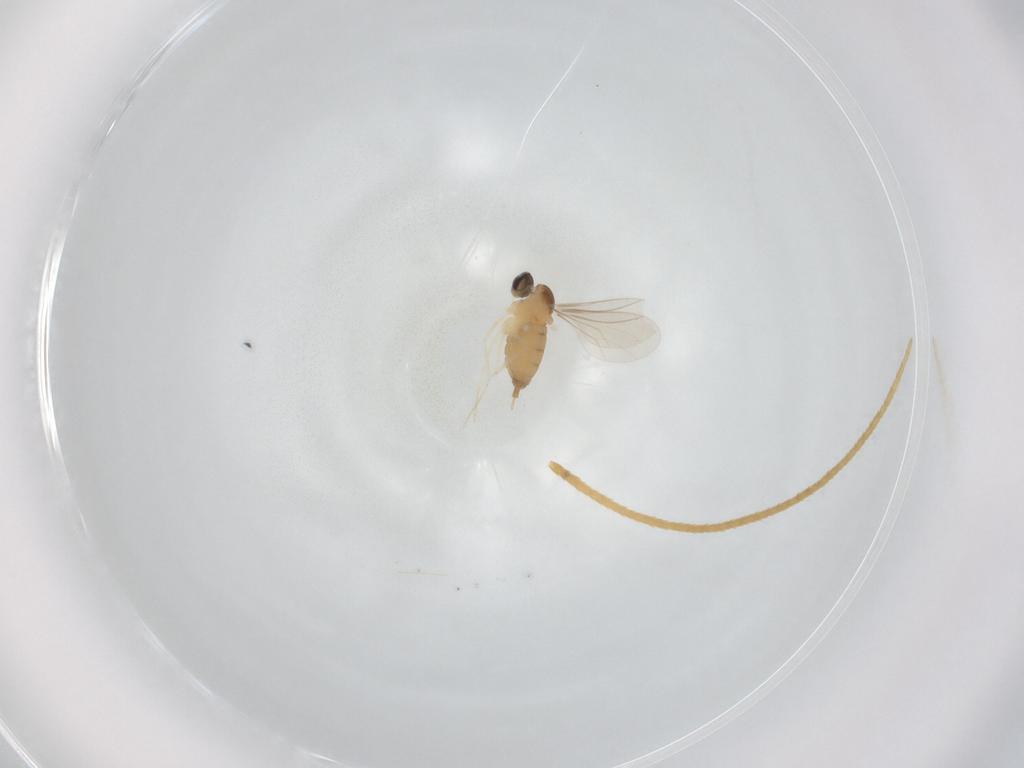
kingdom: Animalia
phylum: Arthropoda
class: Insecta
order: Diptera
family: Cecidomyiidae
